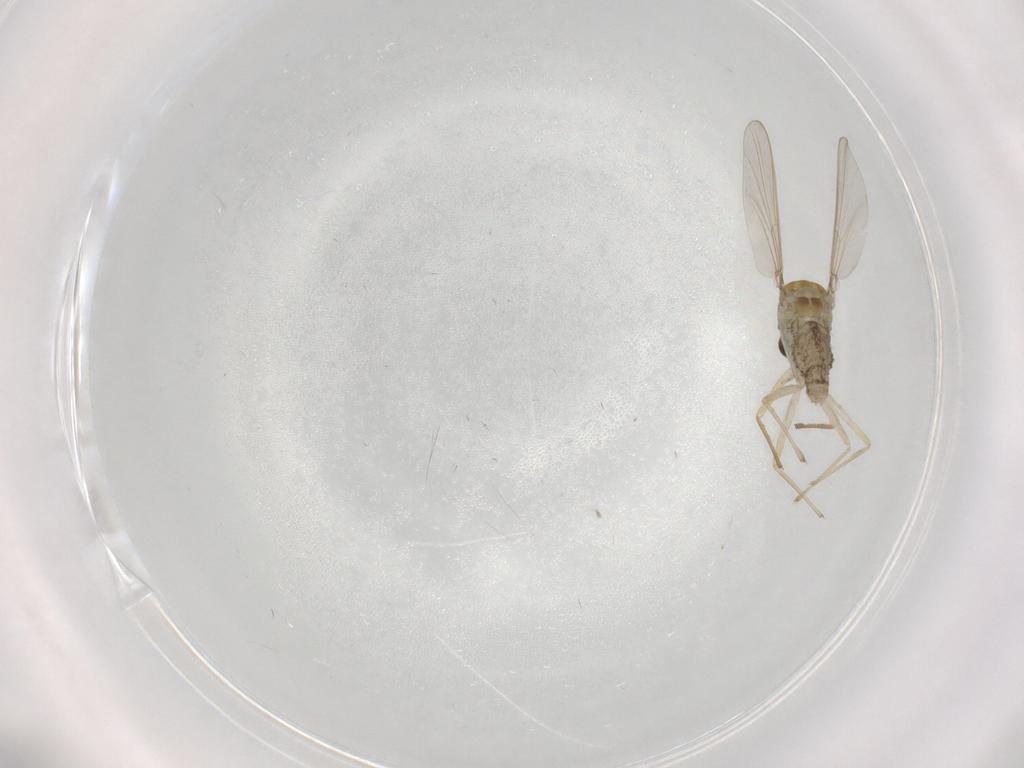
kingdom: Animalia
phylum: Arthropoda
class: Insecta
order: Diptera
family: Chironomidae
